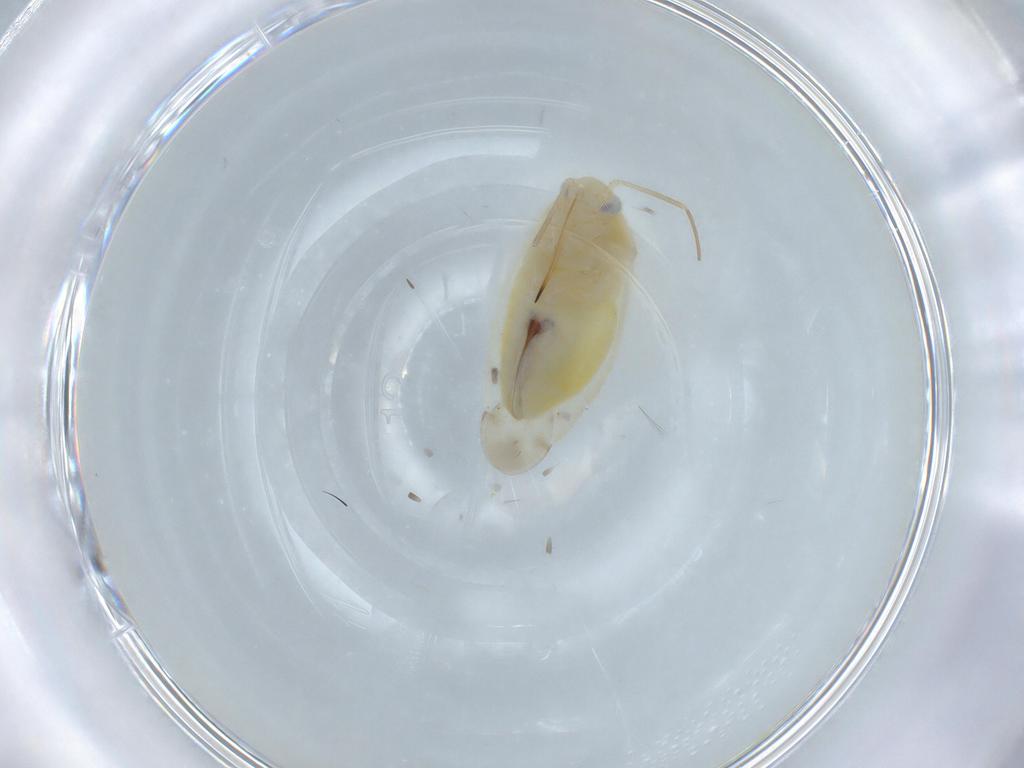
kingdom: Animalia
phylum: Arthropoda
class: Insecta
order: Hemiptera
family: Miridae
